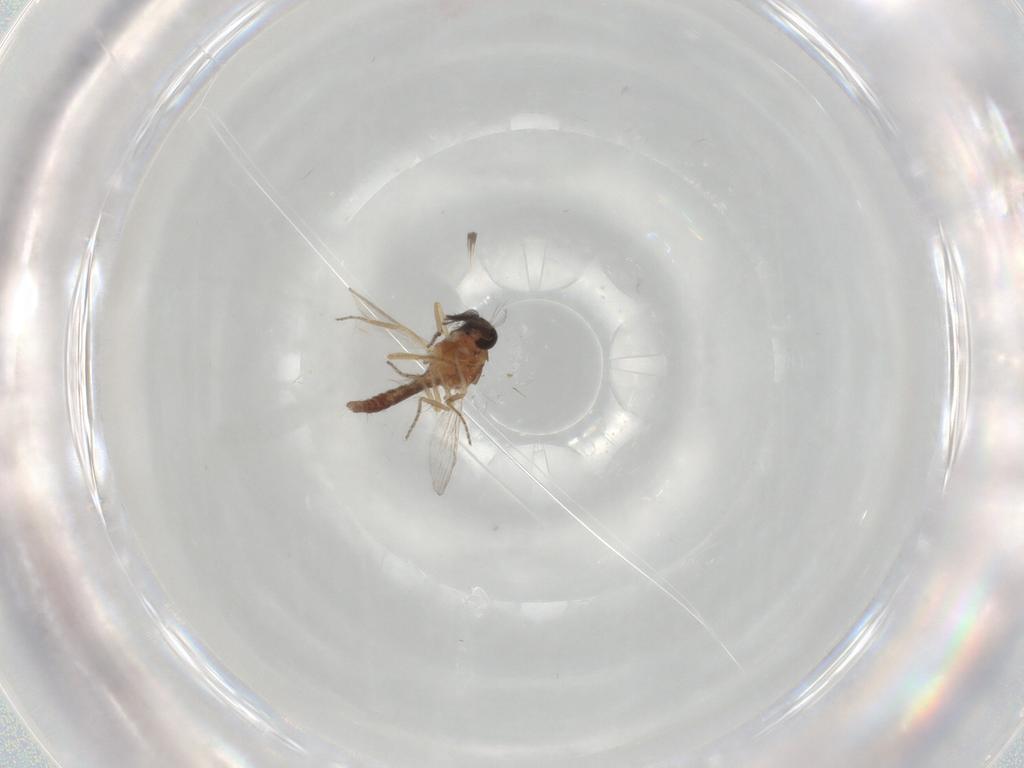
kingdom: Animalia
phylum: Arthropoda
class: Insecta
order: Diptera
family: Ceratopogonidae
